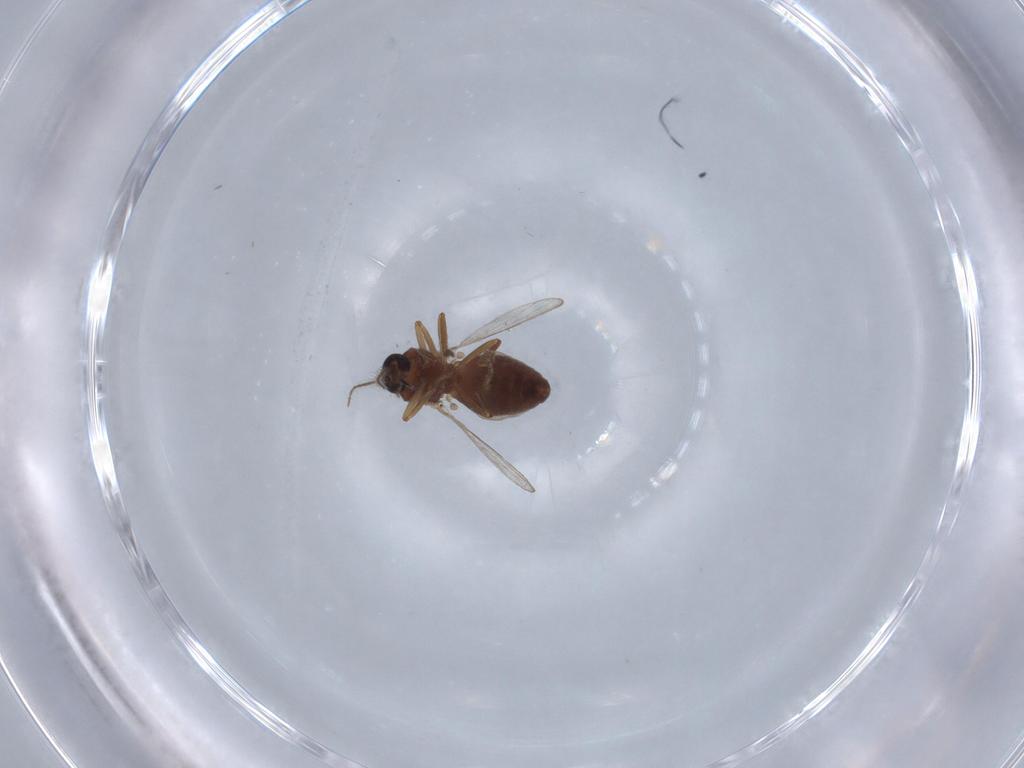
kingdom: Animalia
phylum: Arthropoda
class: Insecta
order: Diptera
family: Ceratopogonidae
